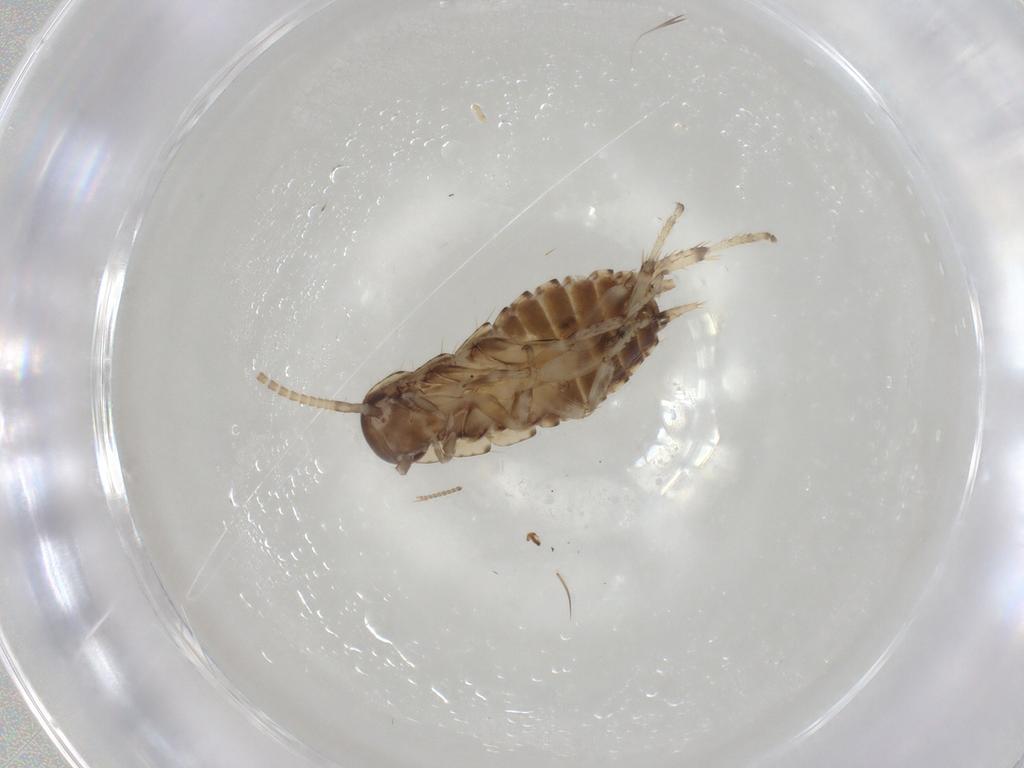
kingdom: Animalia
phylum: Arthropoda
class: Insecta
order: Blattodea
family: Blaberidae
